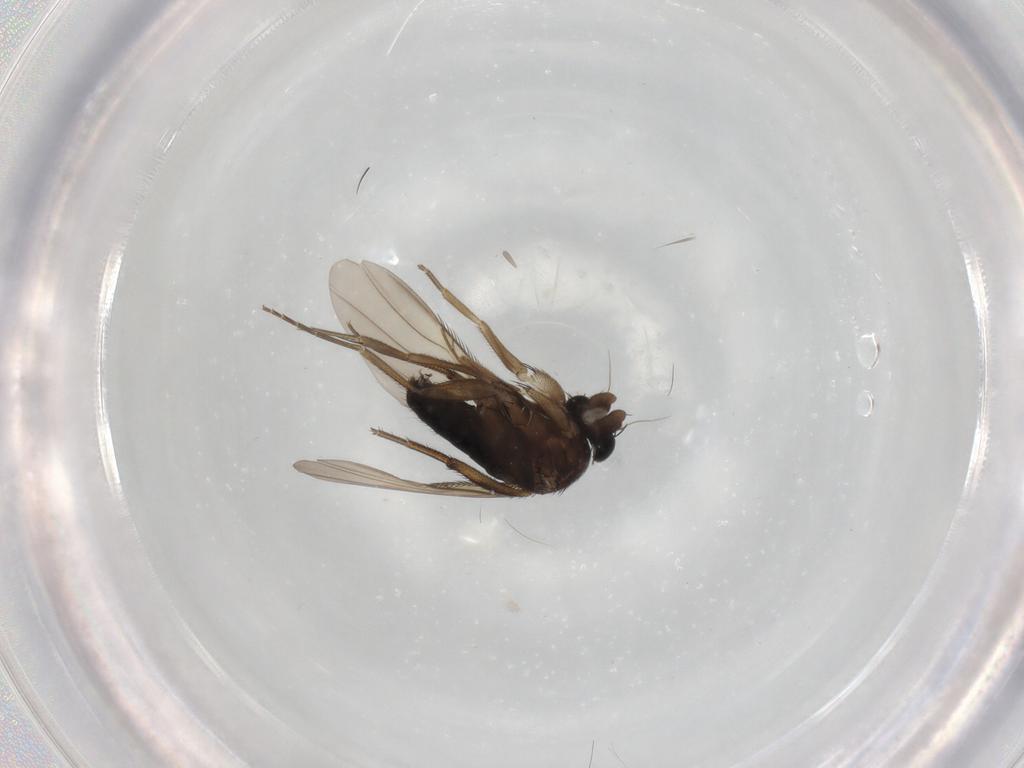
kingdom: Animalia
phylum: Arthropoda
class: Insecta
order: Diptera
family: Phoridae
